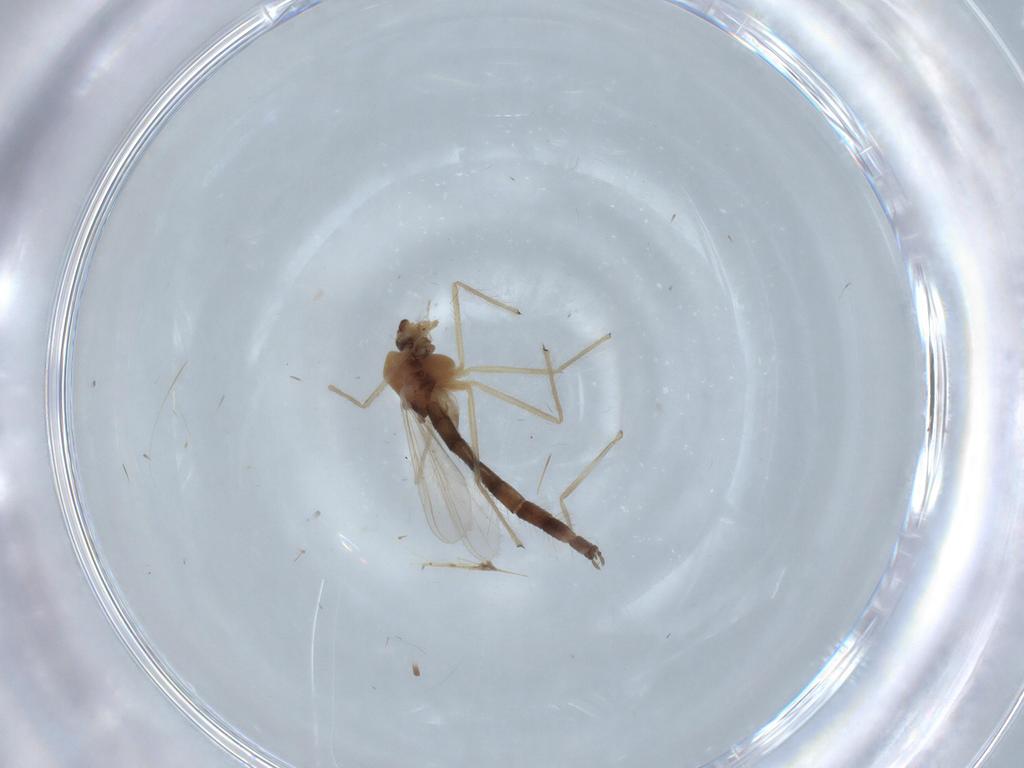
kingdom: Animalia
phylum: Arthropoda
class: Insecta
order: Diptera
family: Chironomidae
